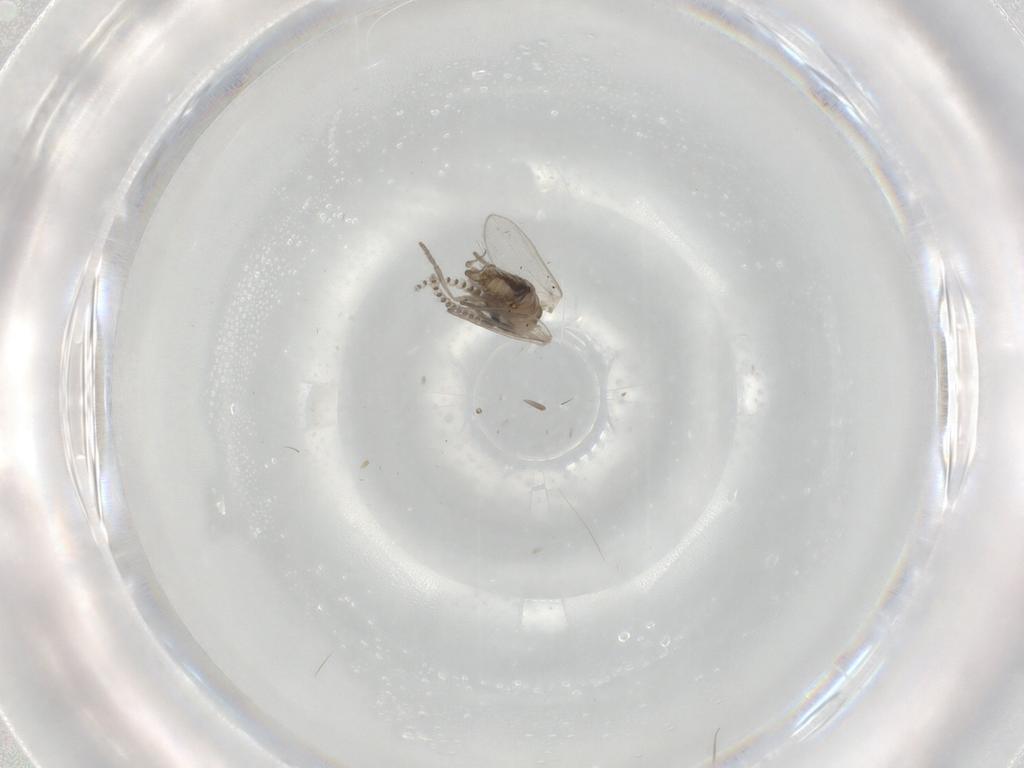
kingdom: Animalia
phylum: Arthropoda
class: Insecta
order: Diptera
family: Psychodidae
